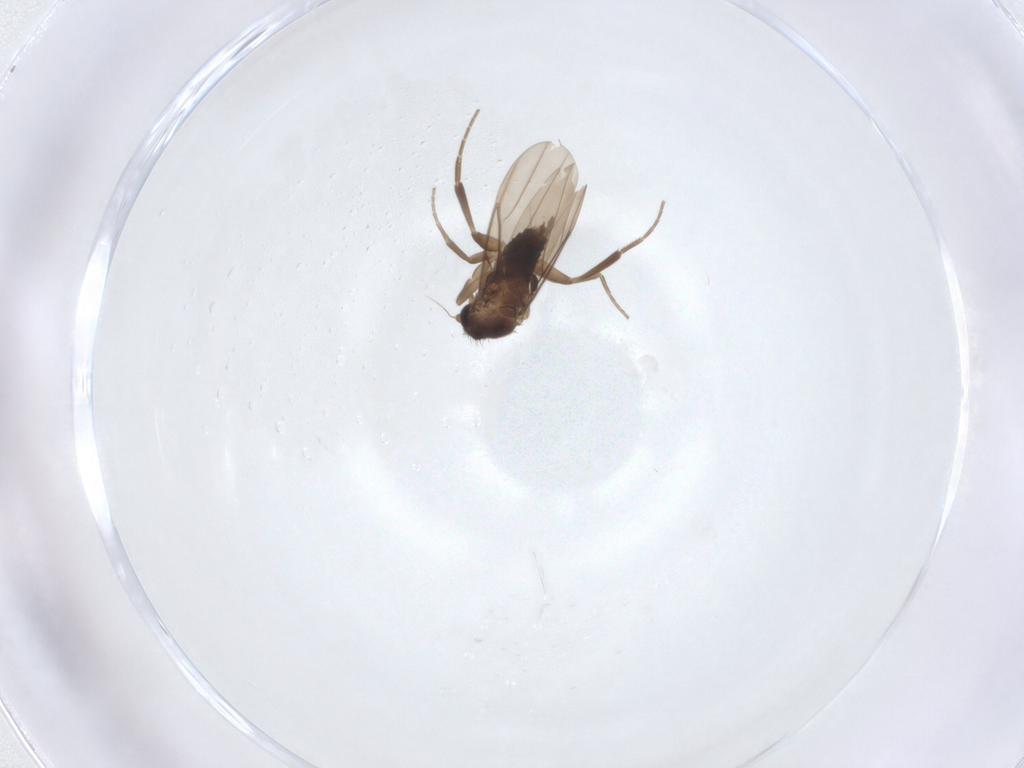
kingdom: Animalia
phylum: Arthropoda
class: Insecta
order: Diptera
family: Phoridae
